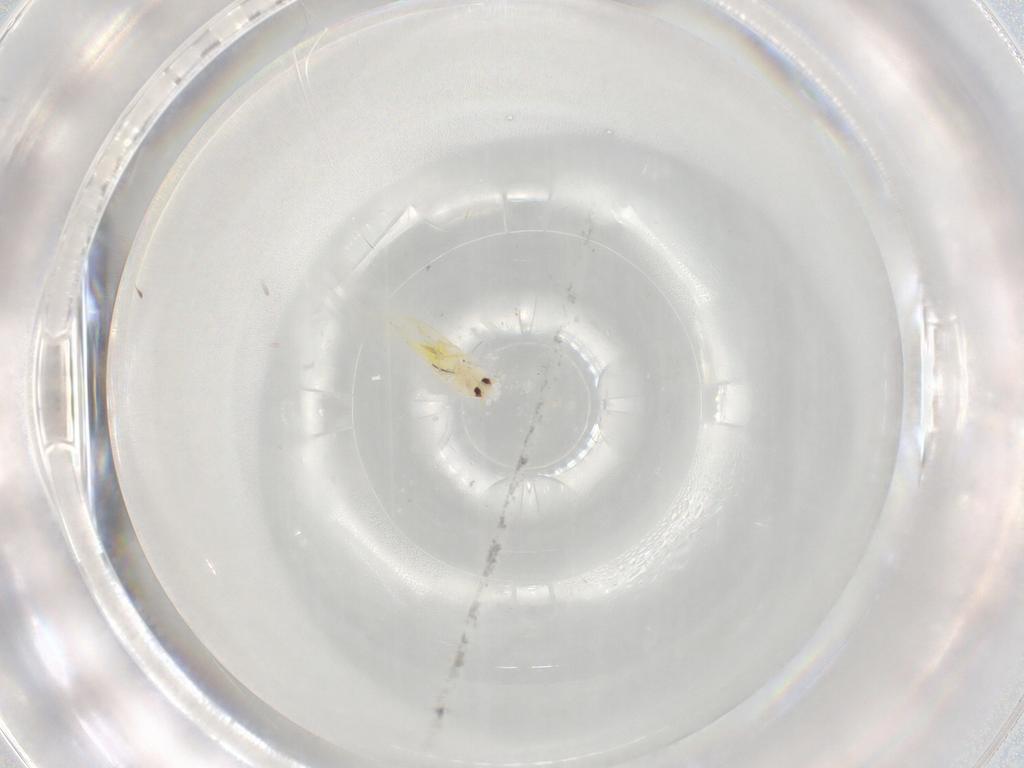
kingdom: Animalia
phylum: Arthropoda
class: Insecta
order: Hemiptera
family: Aleyrodidae
